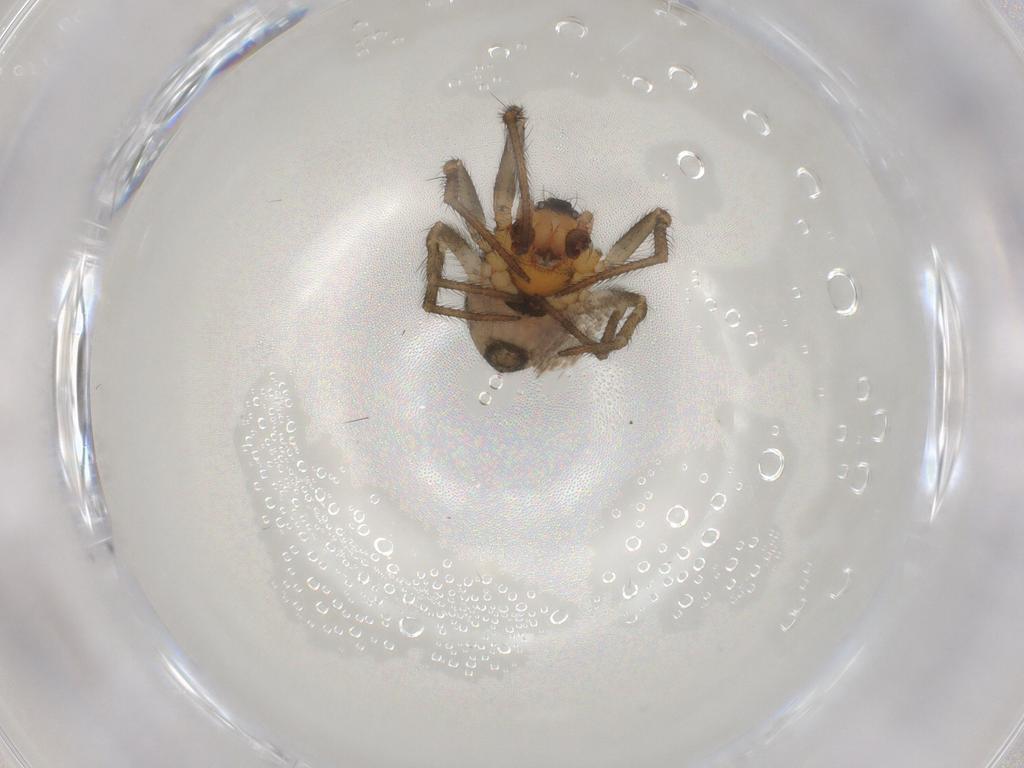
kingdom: Animalia
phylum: Arthropoda
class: Arachnida
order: Araneae
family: Theridiidae
